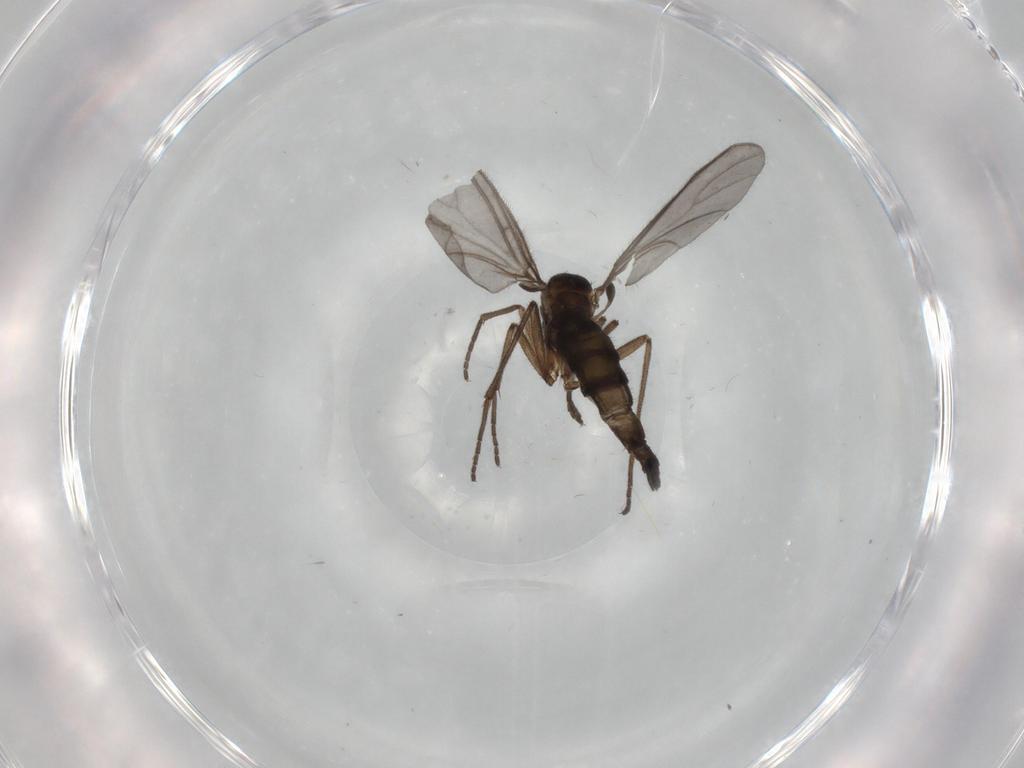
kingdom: Animalia
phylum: Arthropoda
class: Insecta
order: Diptera
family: Sciaridae
